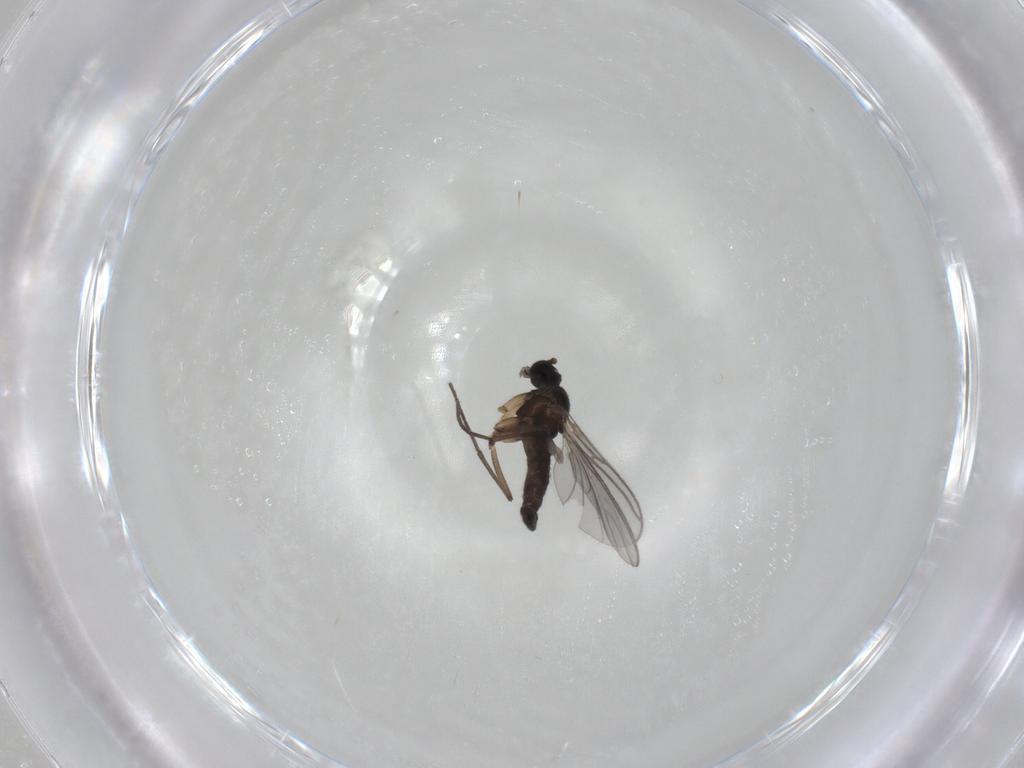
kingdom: Animalia
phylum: Arthropoda
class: Insecta
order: Diptera
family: Sciaridae
